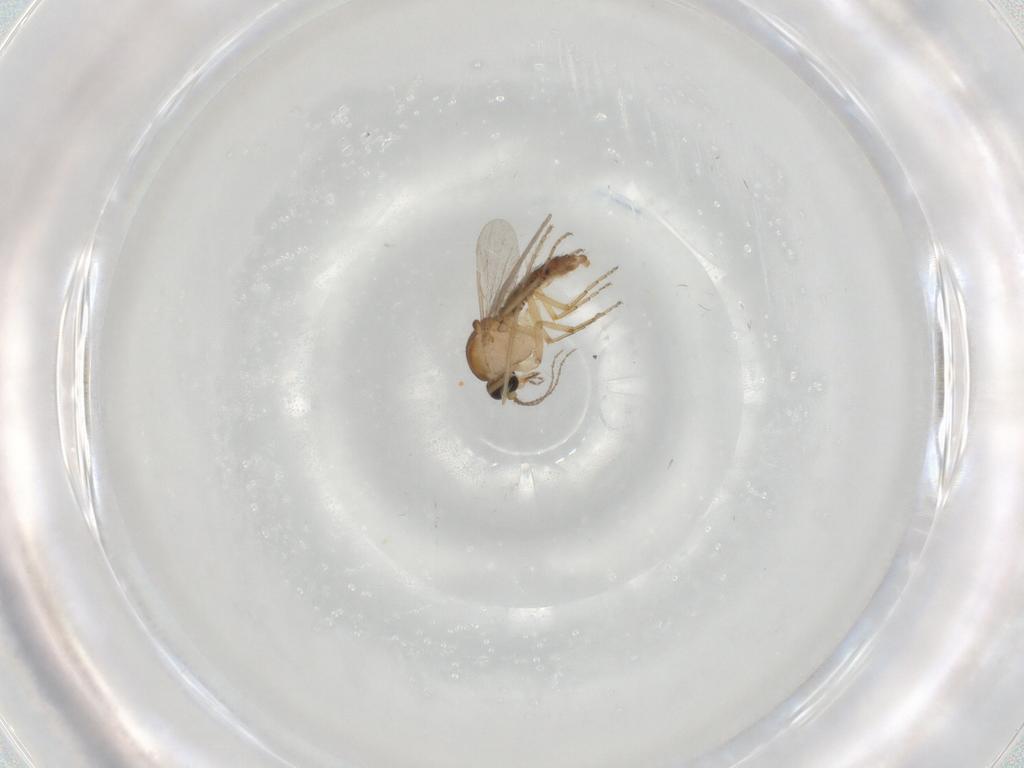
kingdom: Animalia
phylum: Arthropoda
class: Insecta
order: Diptera
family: Ceratopogonidae
